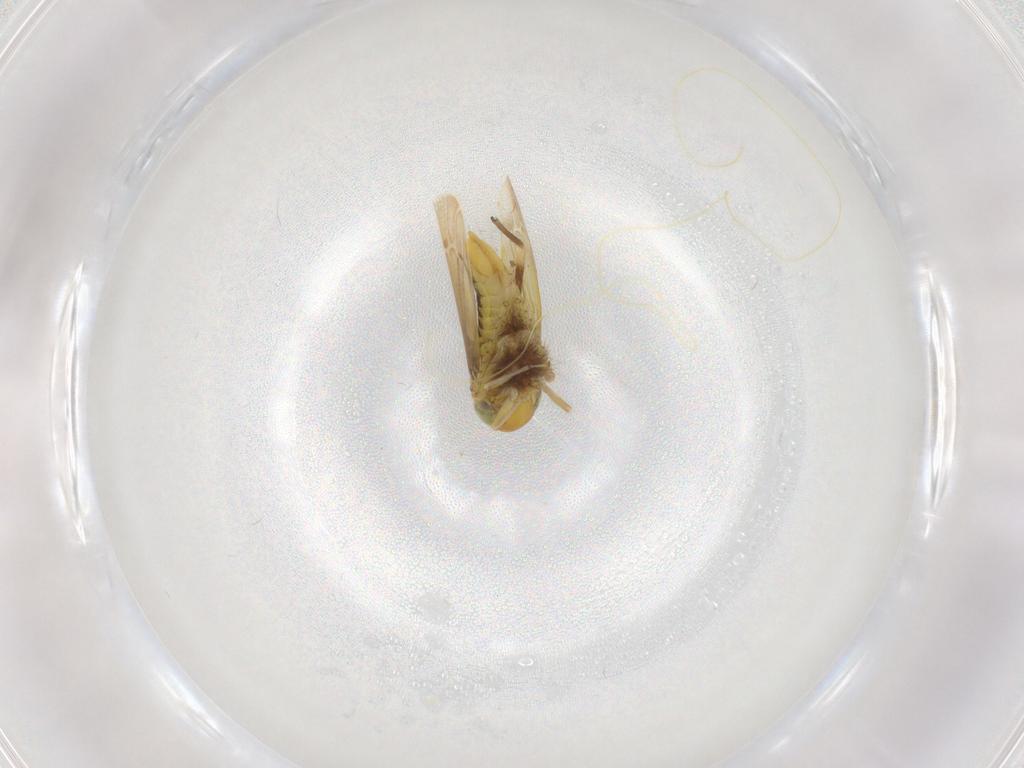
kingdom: Animalia
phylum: Arthropoda
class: Insecta
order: Hemiptera
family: Cicadellidae
